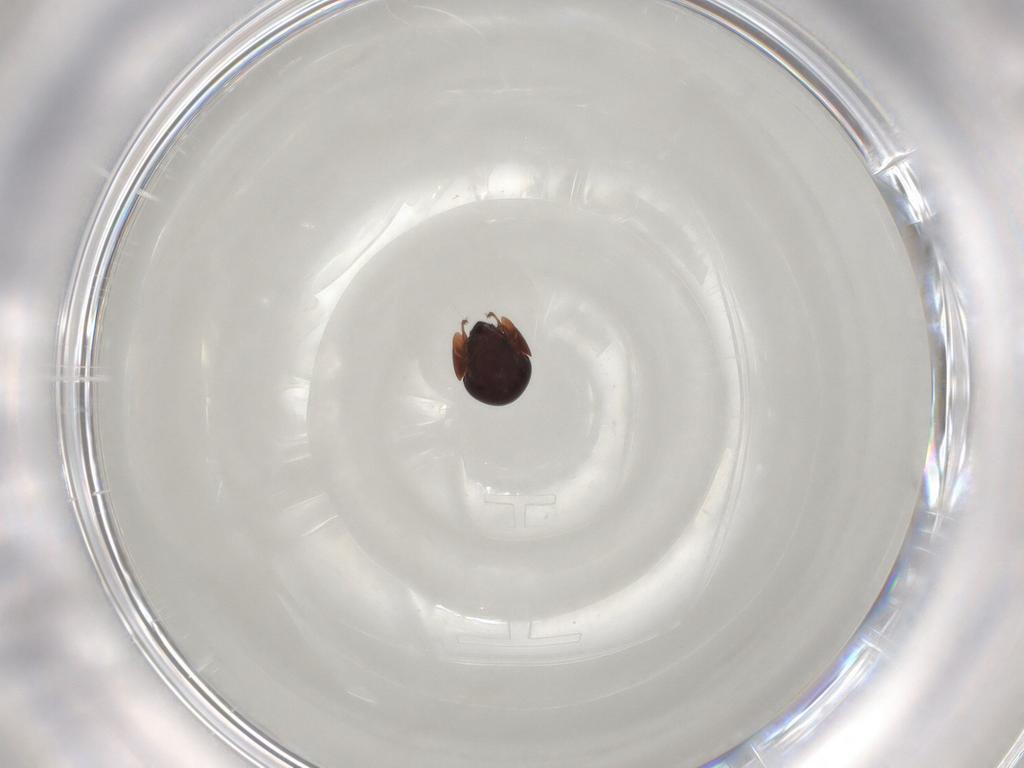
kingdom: Animalia
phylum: Arthropoda
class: Arachnida
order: Sarcoptiformes
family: Galumnidae
